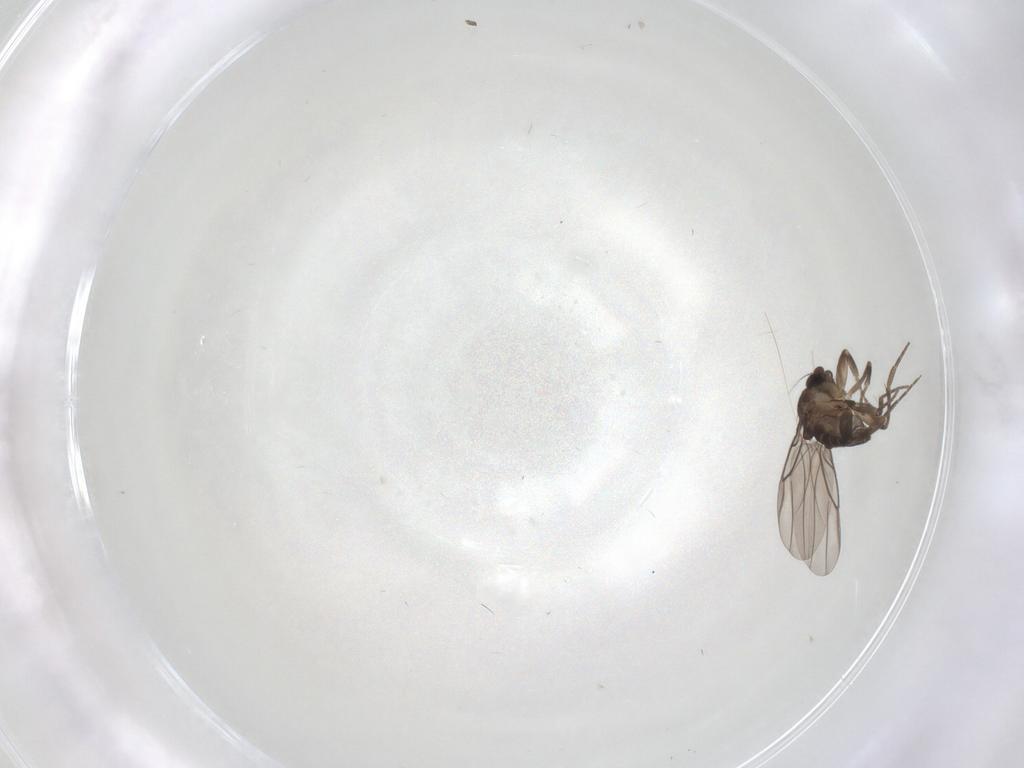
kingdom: Animalia
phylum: Arthropoda
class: Insecta
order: Diptera
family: Phoridae
